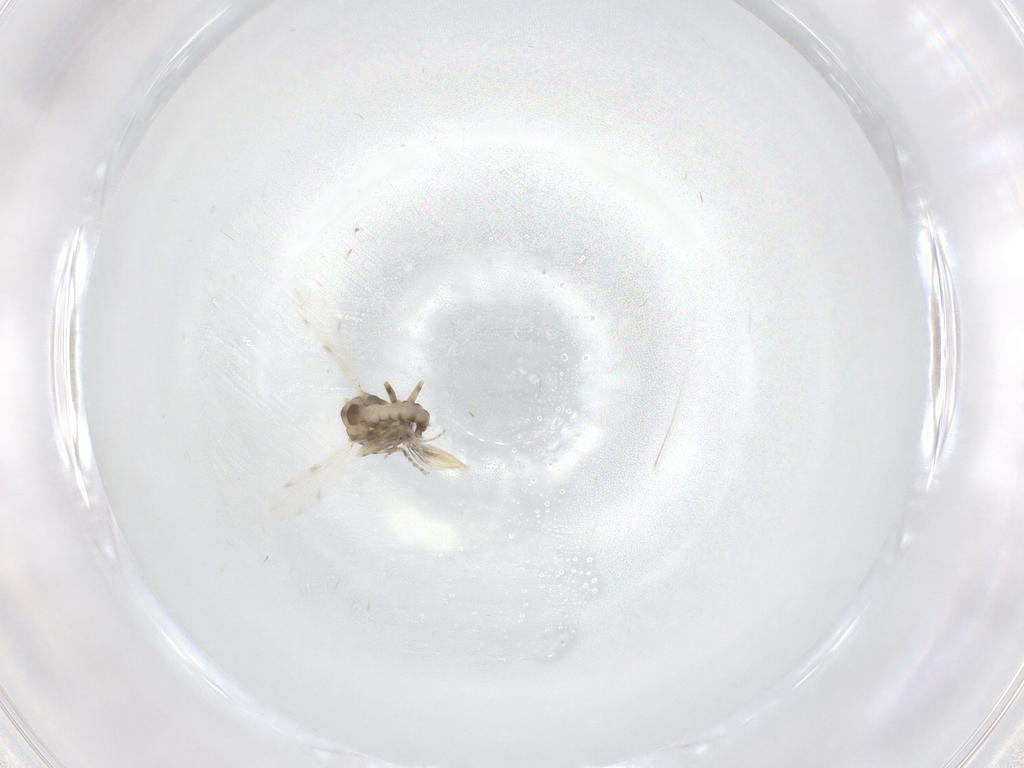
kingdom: Animalia
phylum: Arthropoda
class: Insecta
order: Diptera
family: Ceratopogonidae
